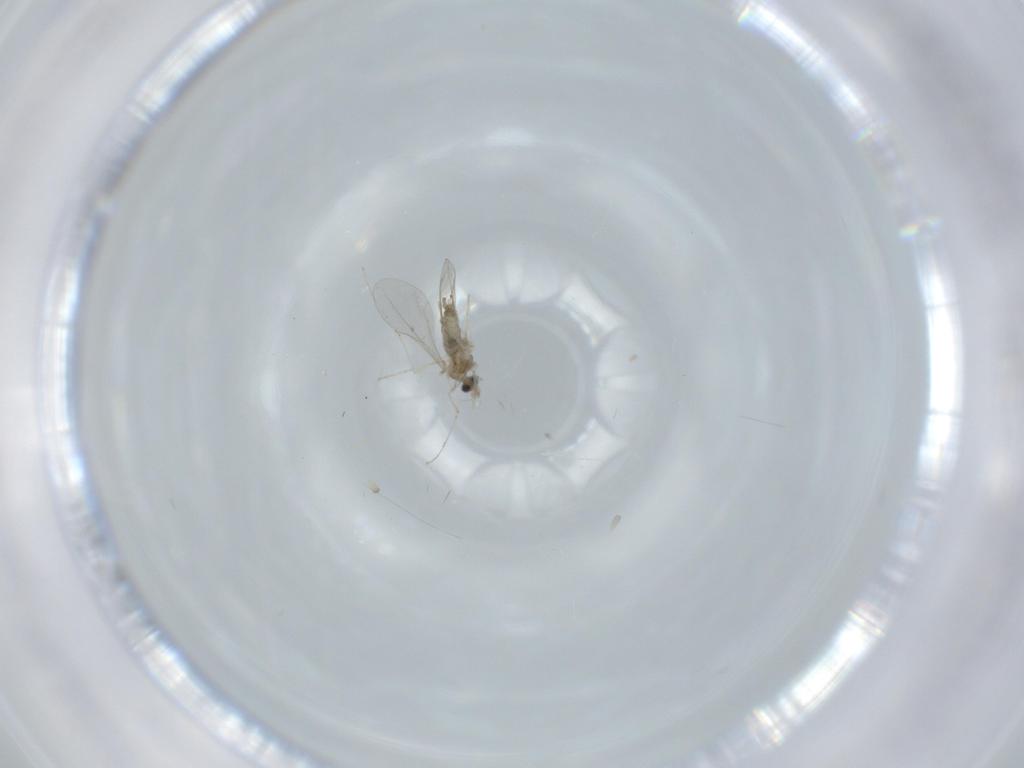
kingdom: Animalia
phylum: Arthropoda
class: Insecta
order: Diptera
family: Cecidomyiidae
